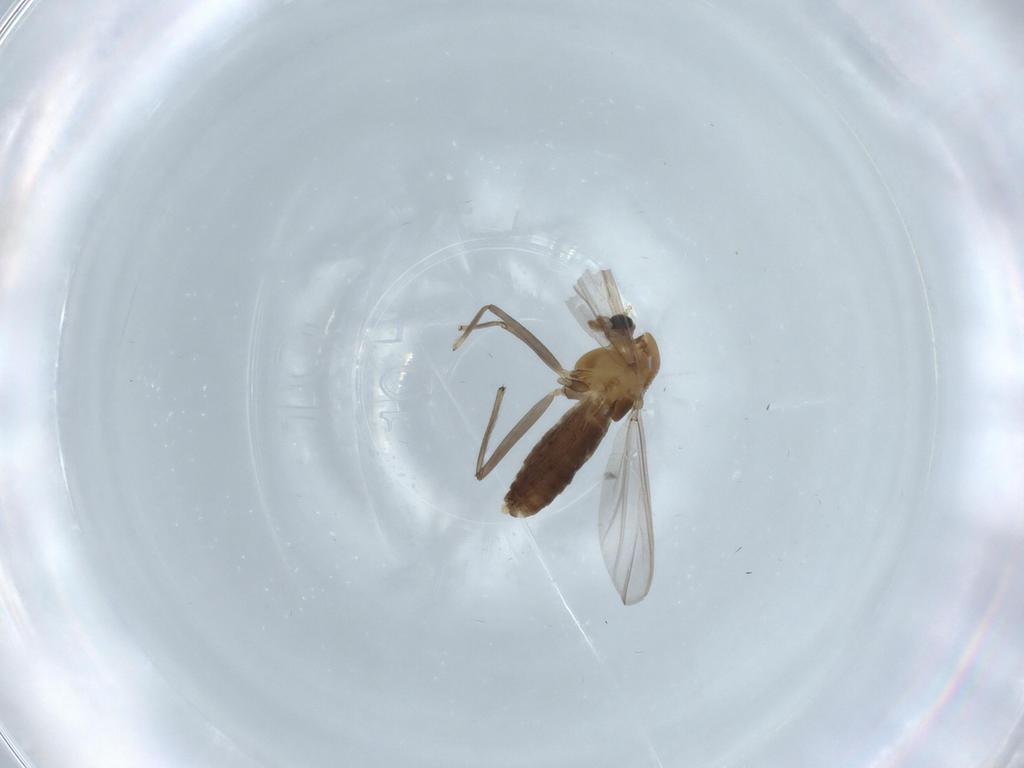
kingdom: Animalia
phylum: Arthropoda
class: Insecta
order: Diptera
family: Chironomidae
